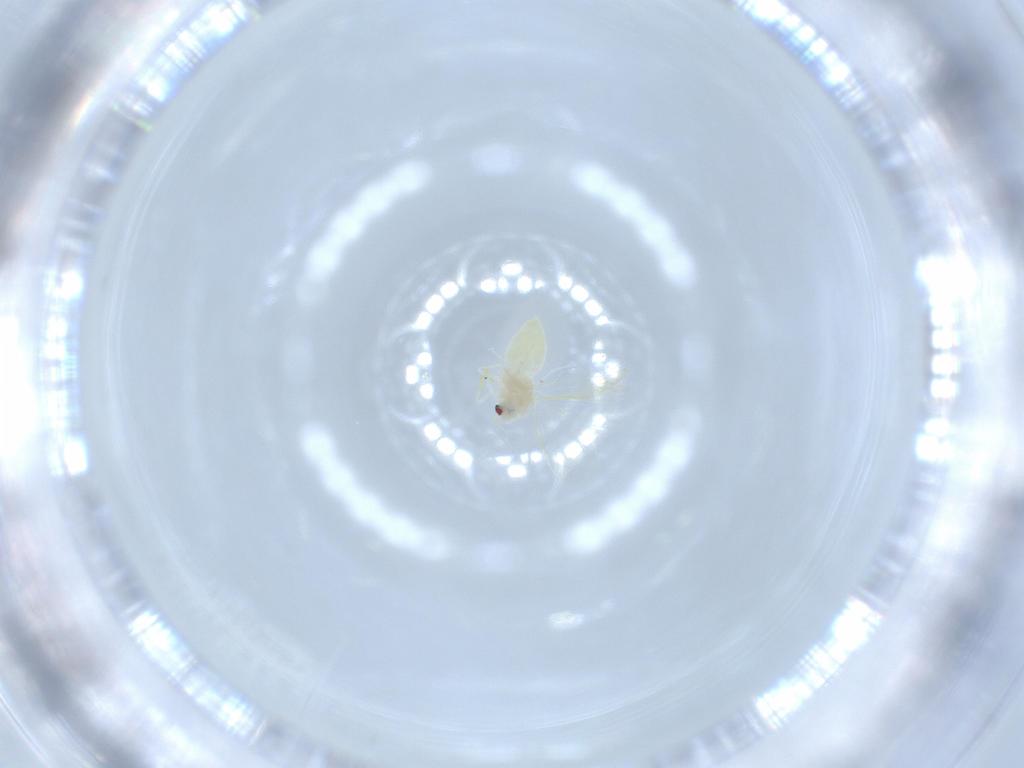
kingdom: Animalia
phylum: Arthropoda
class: Insecta
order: Hemiptera
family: Aleyrodidae
